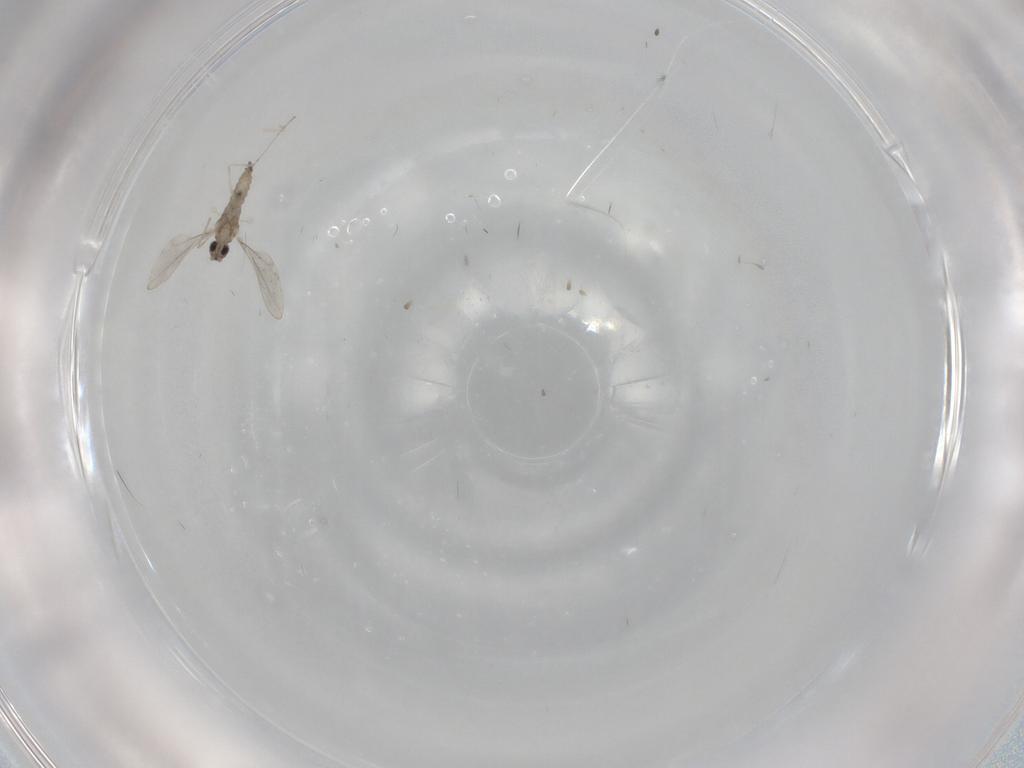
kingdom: Animalia
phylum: Arthropoda
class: Insecta
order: Diptera
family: Cecidomyiidae
